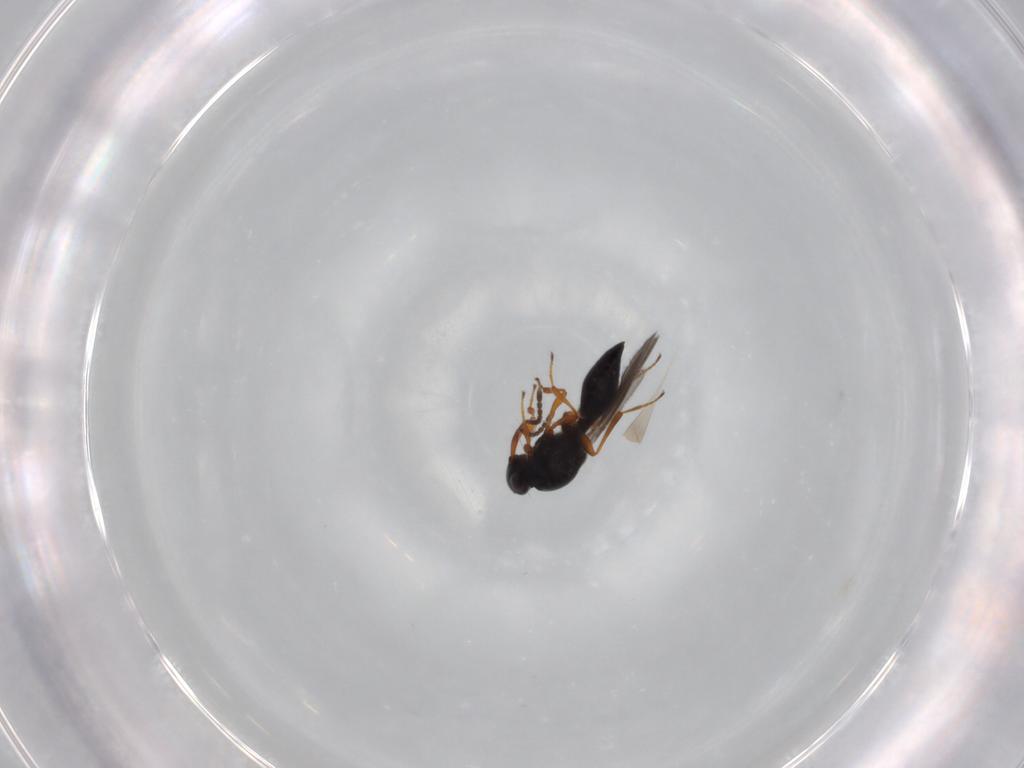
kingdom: Animalia
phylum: Arthropoda
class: Insecta
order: Hymenoptera
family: Platygastridae
